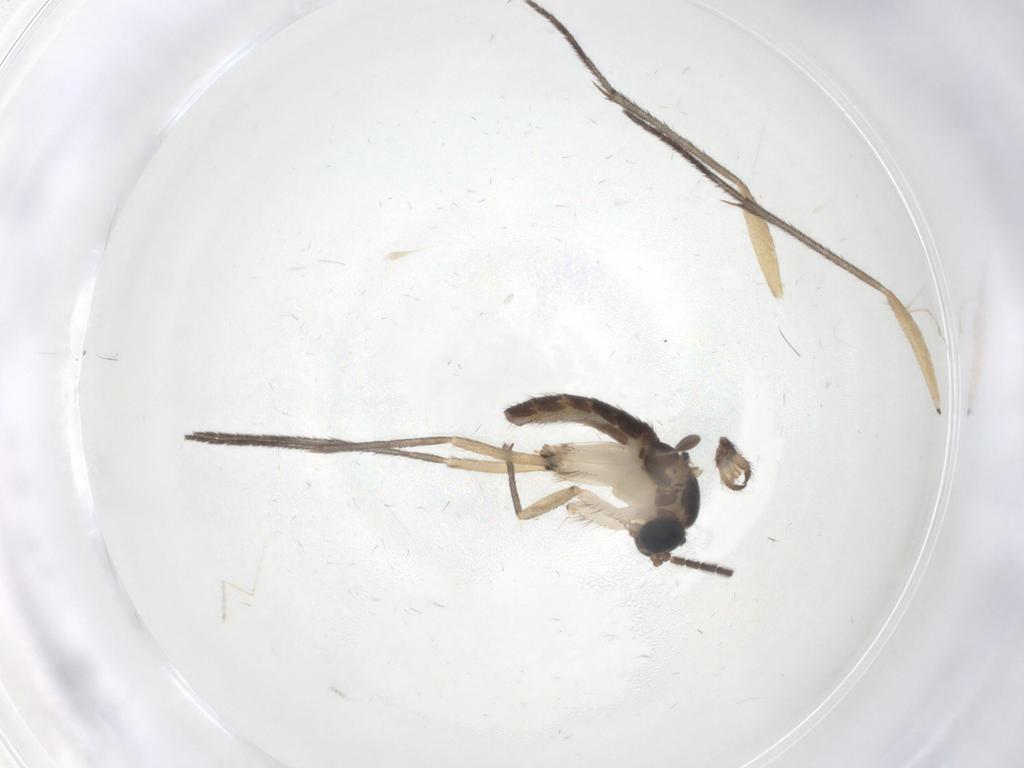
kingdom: Animalia
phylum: Arthropoda
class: Insecta
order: Diptera
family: Sciaridae
